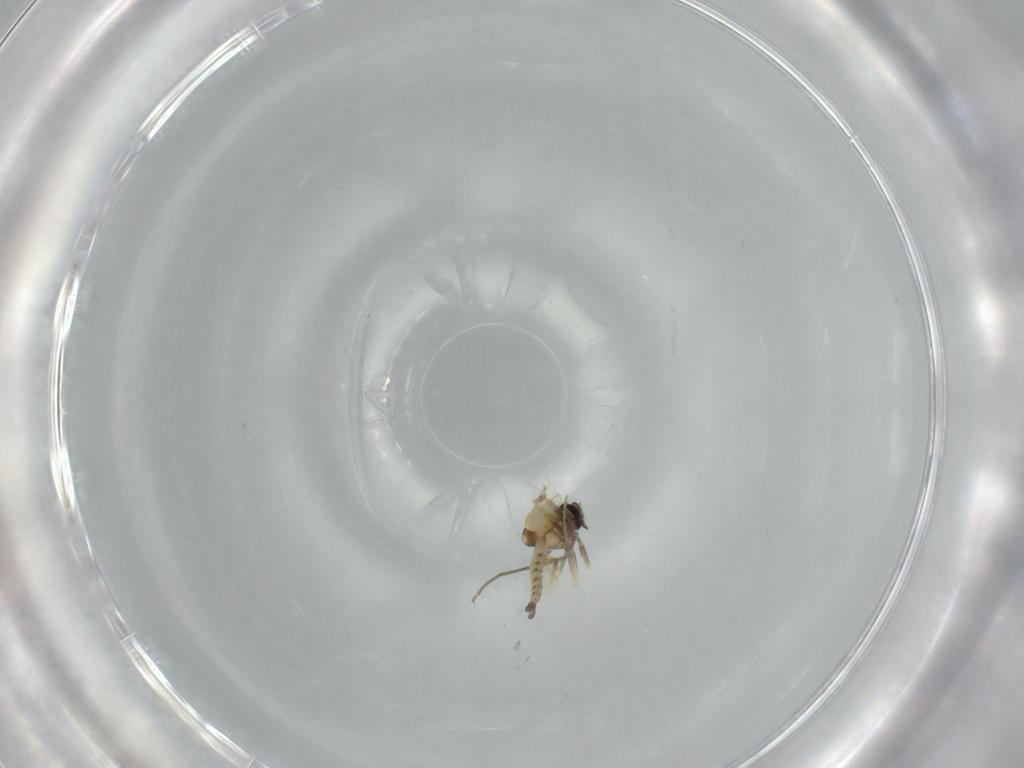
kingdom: Animalia
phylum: Arthropoda
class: Insecta
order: Diptera
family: Chironomidae
